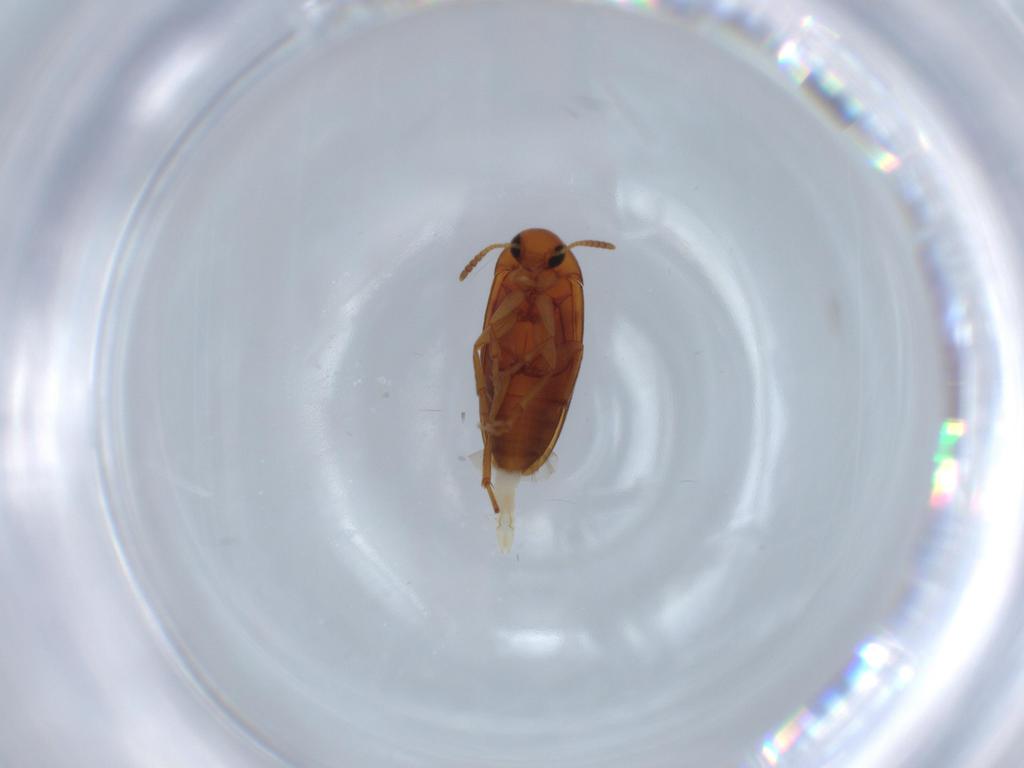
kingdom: Animalia
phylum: Arthropoda
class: Insecta
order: Coleoptera
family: Scraptiidae
